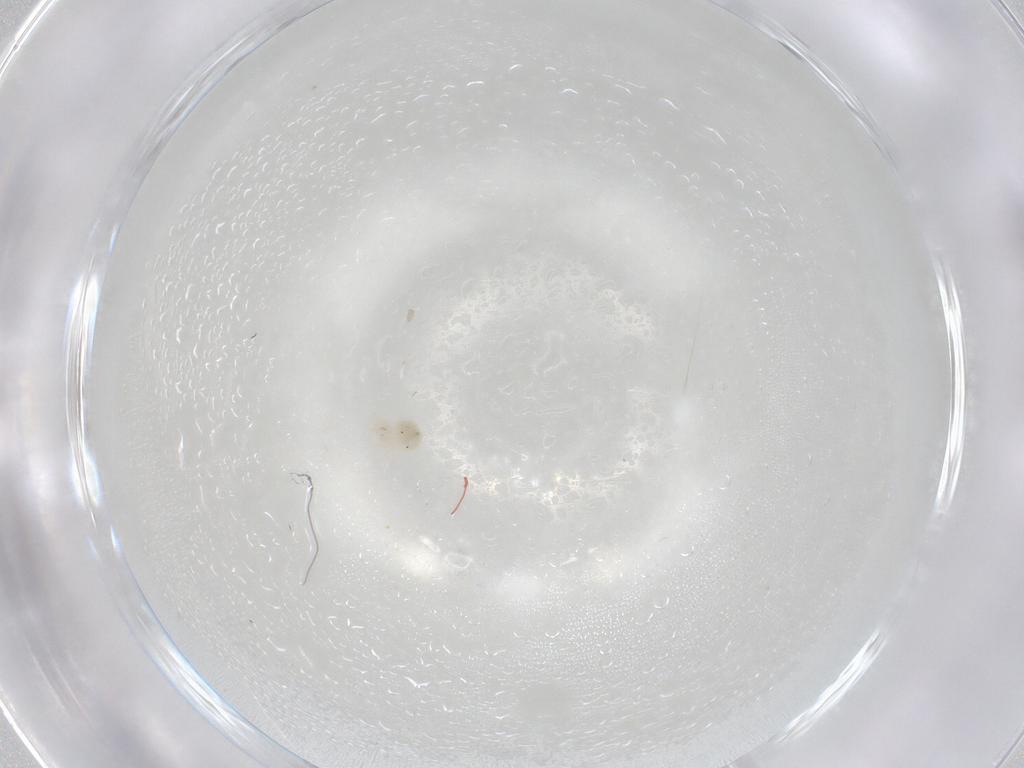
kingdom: Animalia
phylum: Arthropoda
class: Arachnida
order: Trombidiformes
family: Anystidae
